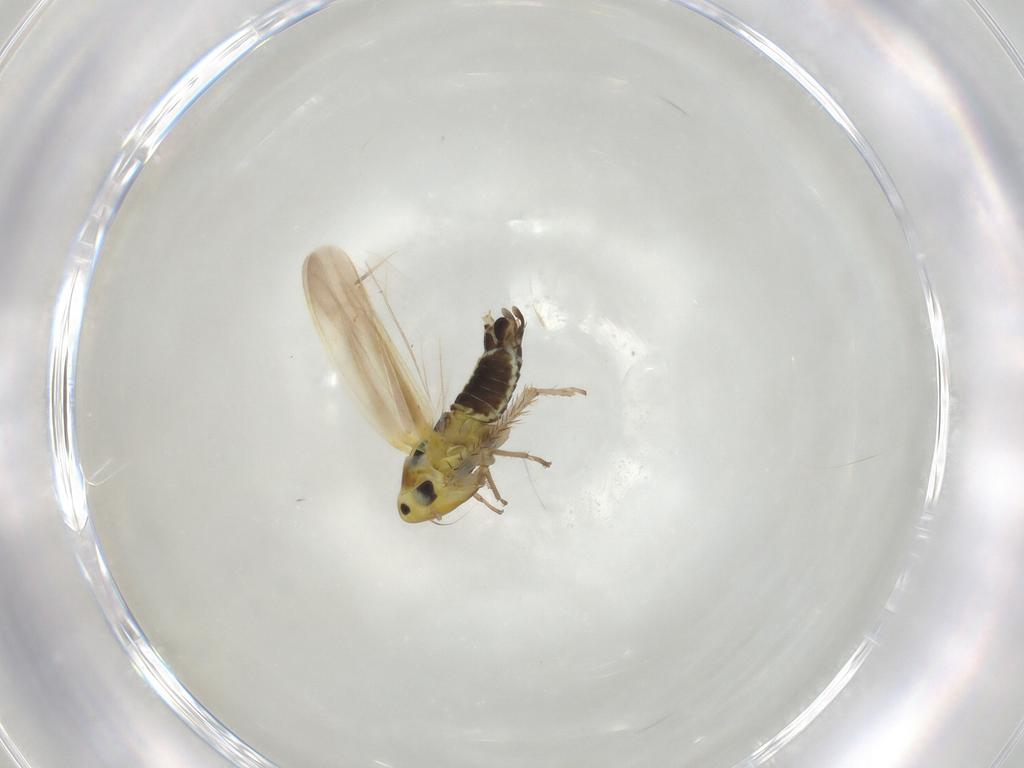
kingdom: Animalia
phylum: Arthropoda
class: Insecta
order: Hemiptera
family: Cicadellidae
